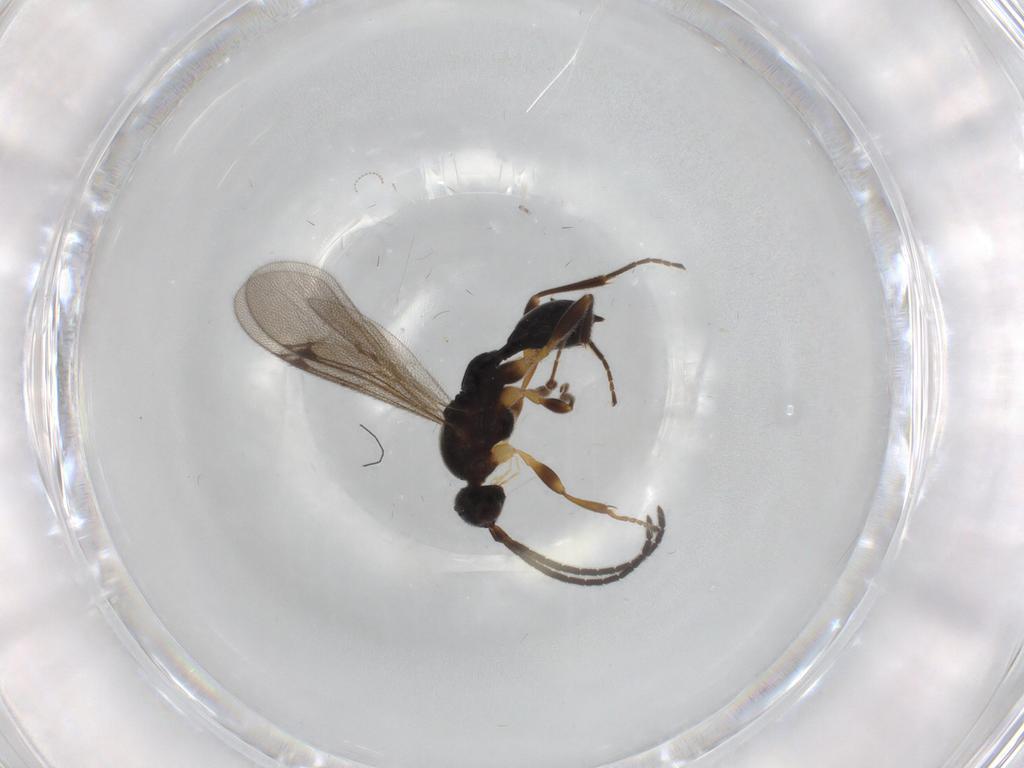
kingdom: Animalia
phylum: Arthropoda
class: Insecta
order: Hymenoptera
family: Proctotrupidae
